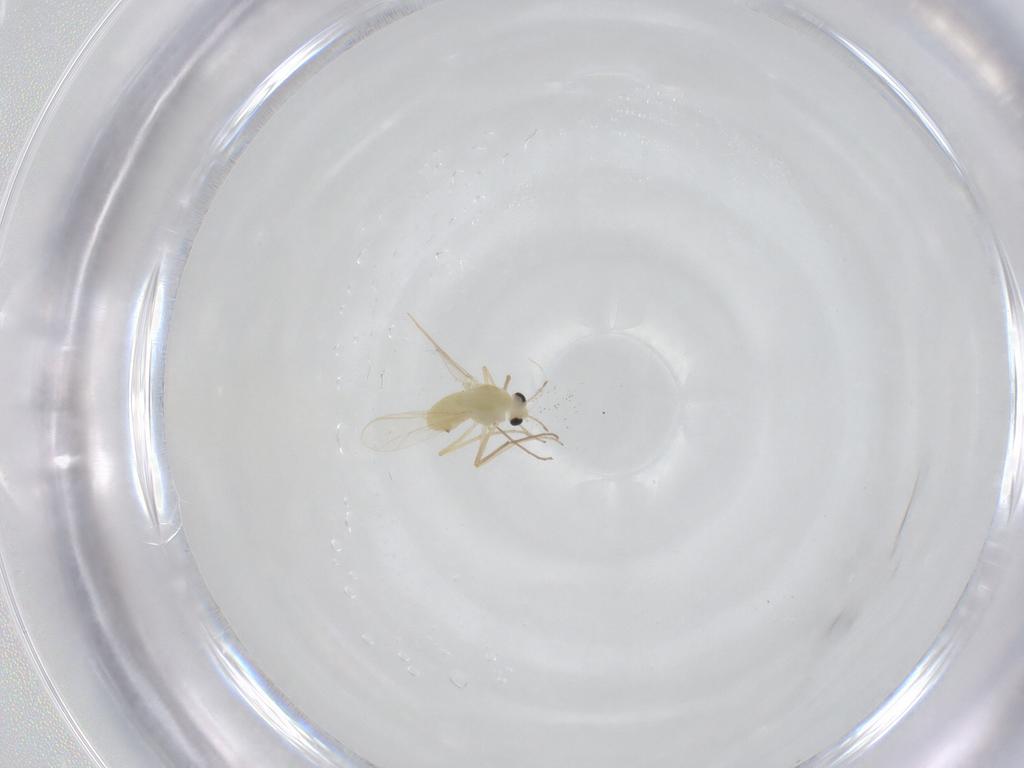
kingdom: Animalia
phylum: Arthropoda
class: Insecta
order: Diptera
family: Chironomidae
